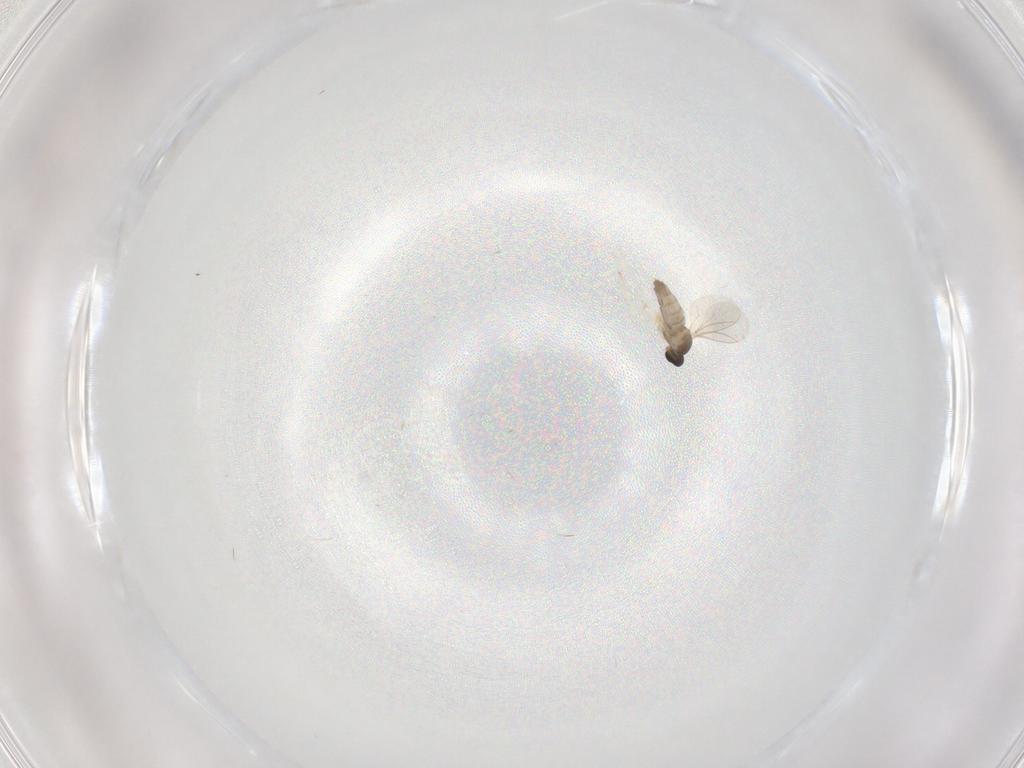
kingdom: Animalia
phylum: Arthropoda
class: Insecta
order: Diptera
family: Cecidomyiidae
